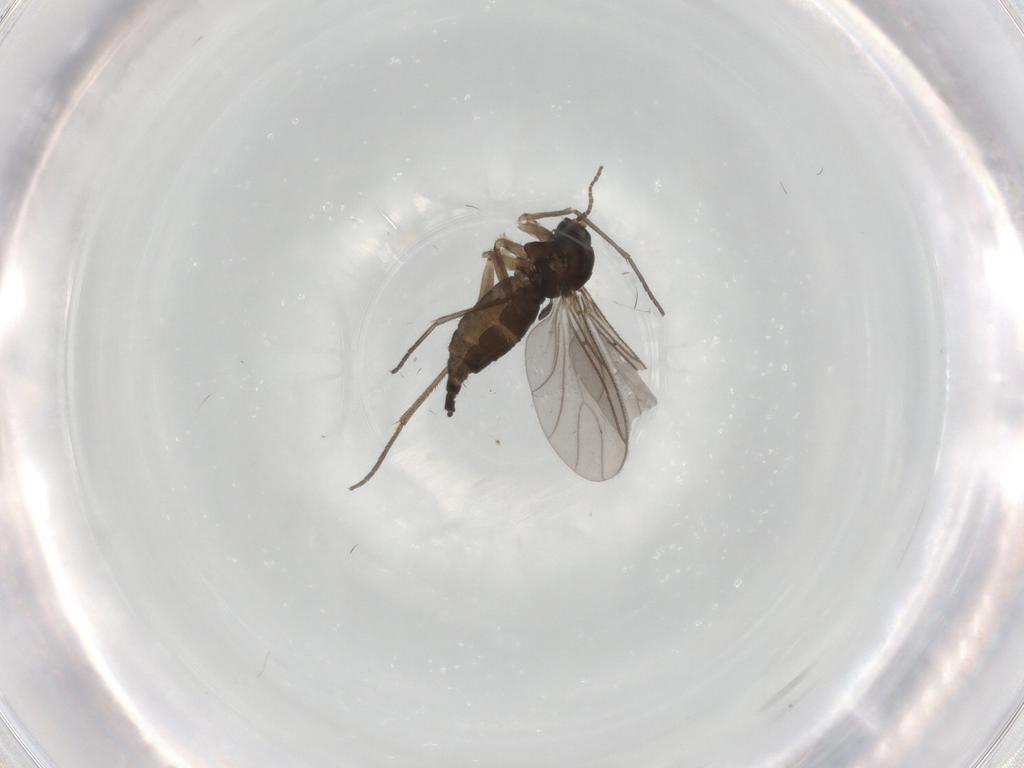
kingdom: Animalia
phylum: Arthropoda
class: Insecta
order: Diptera
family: Sciaridae
